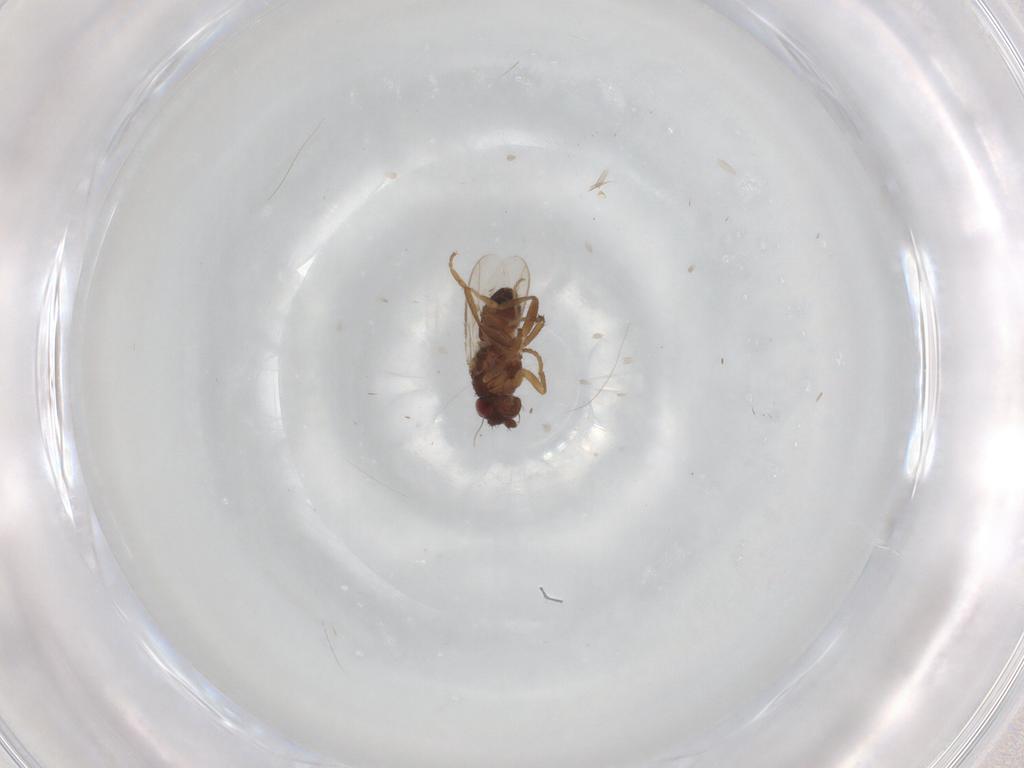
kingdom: Animalia
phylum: Arthropoda
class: Insecta
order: Diptera
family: Sphaeroceridae
